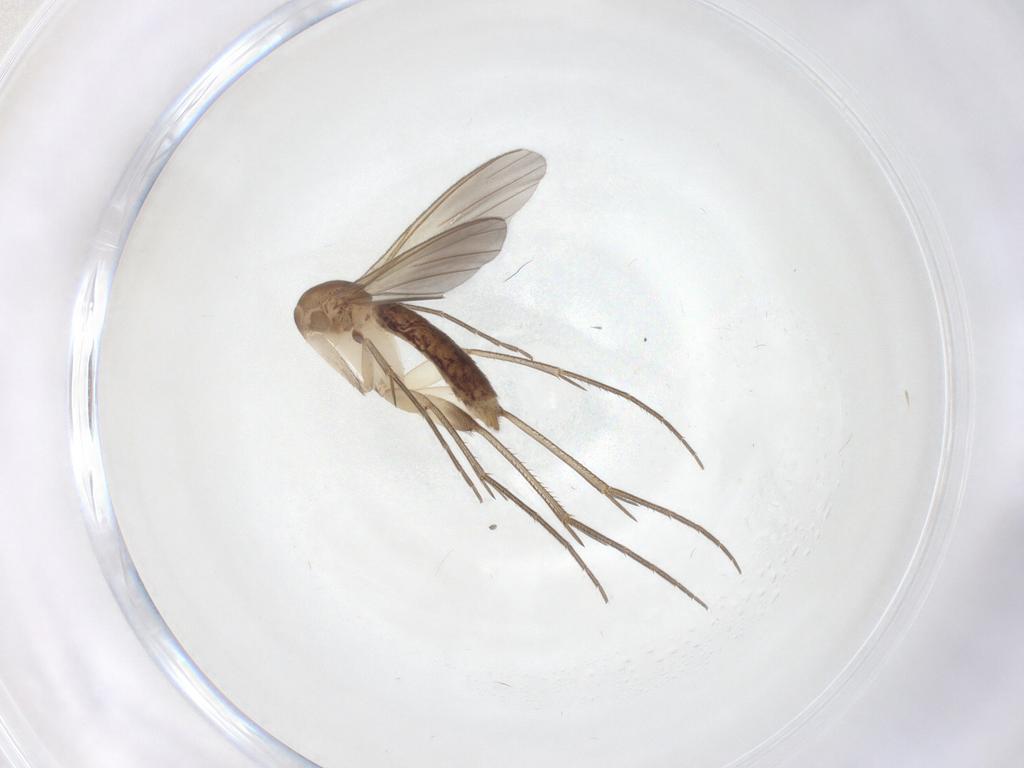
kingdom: Animalia
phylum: Arthropoda
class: Insecta
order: Diptera
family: Mycetophilidae
